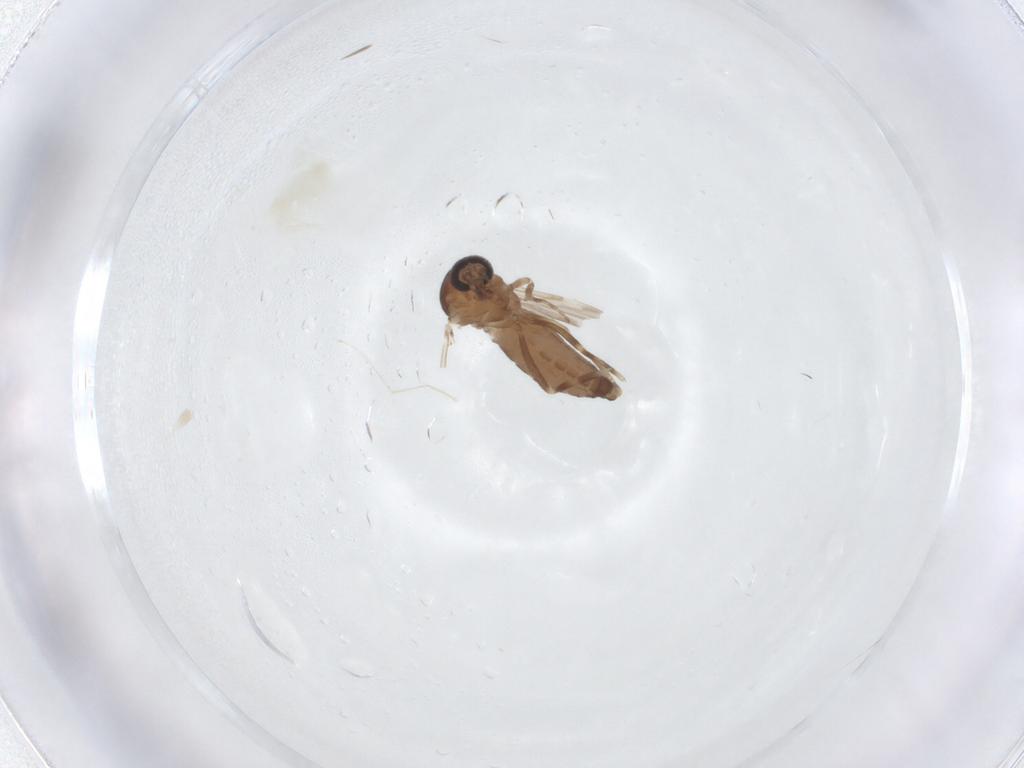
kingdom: Animalia
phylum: Arthropoda
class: Insecta
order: Diptera
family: Ceratopogonidae
